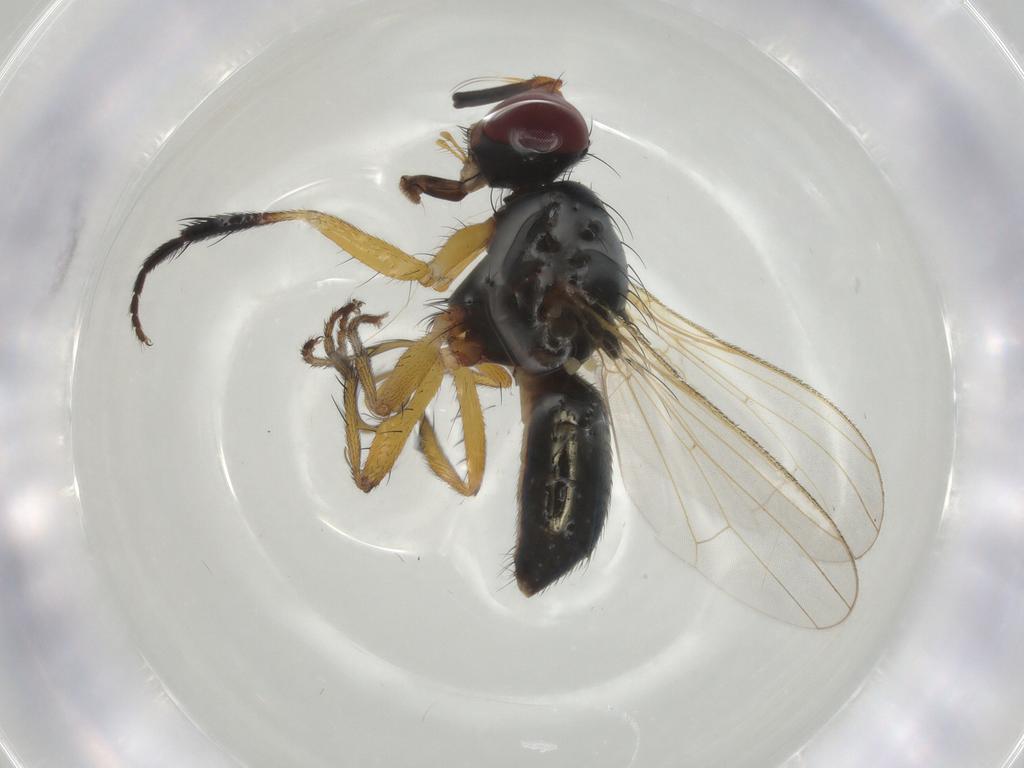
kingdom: Animalia
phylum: Arthropoda
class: Insecta
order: Diptera
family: Muscidae
